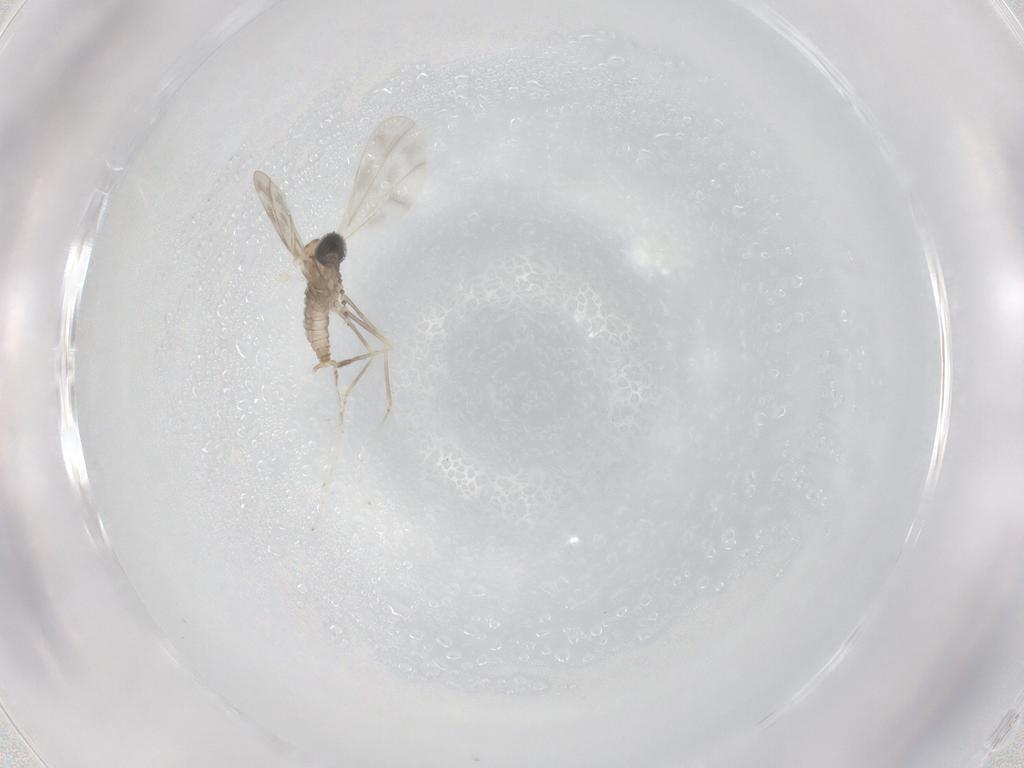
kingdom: Animalia
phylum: Arthropoda
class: Insecta
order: Diptera
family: Cecidomyiidae
